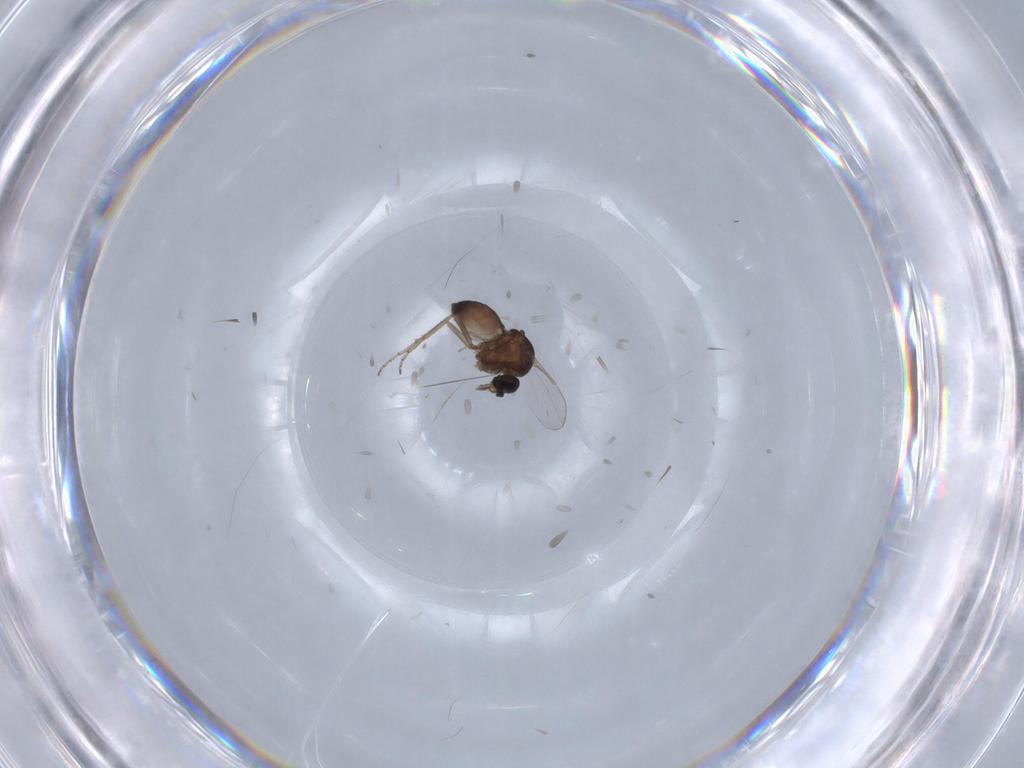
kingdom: Animalia
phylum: Arthropoda
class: Insecta
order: Diptera
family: Ceratopogonidae
